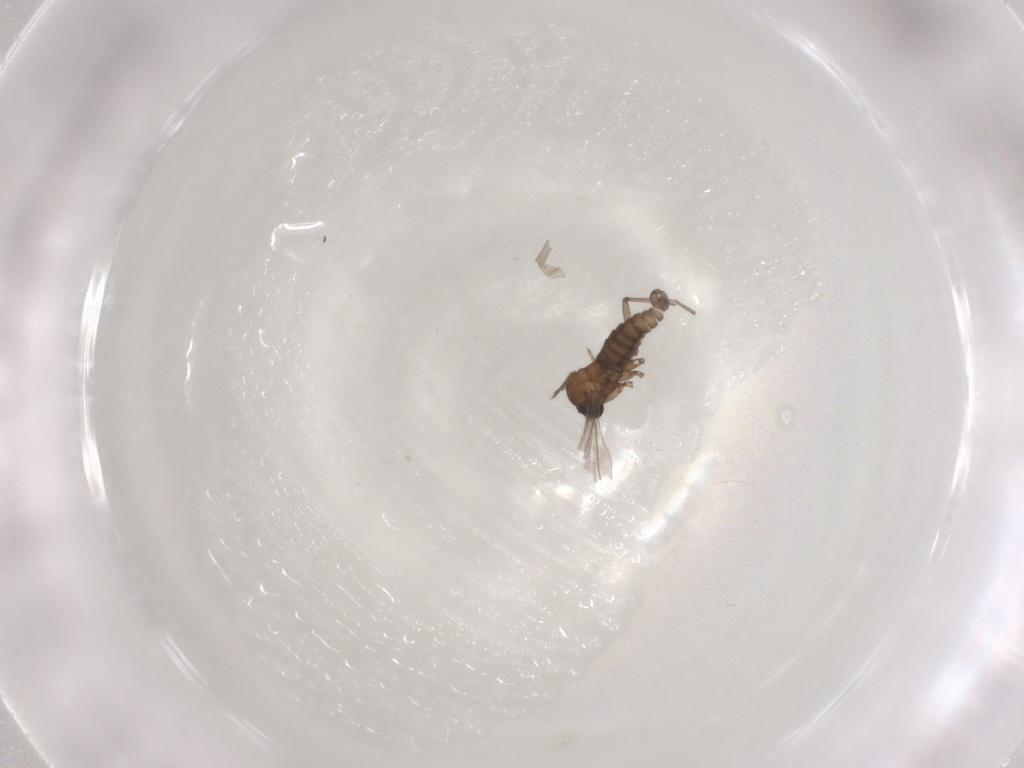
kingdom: Animalia
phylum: Arthropoda
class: Insecta
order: Diptera
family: Sciaridae
